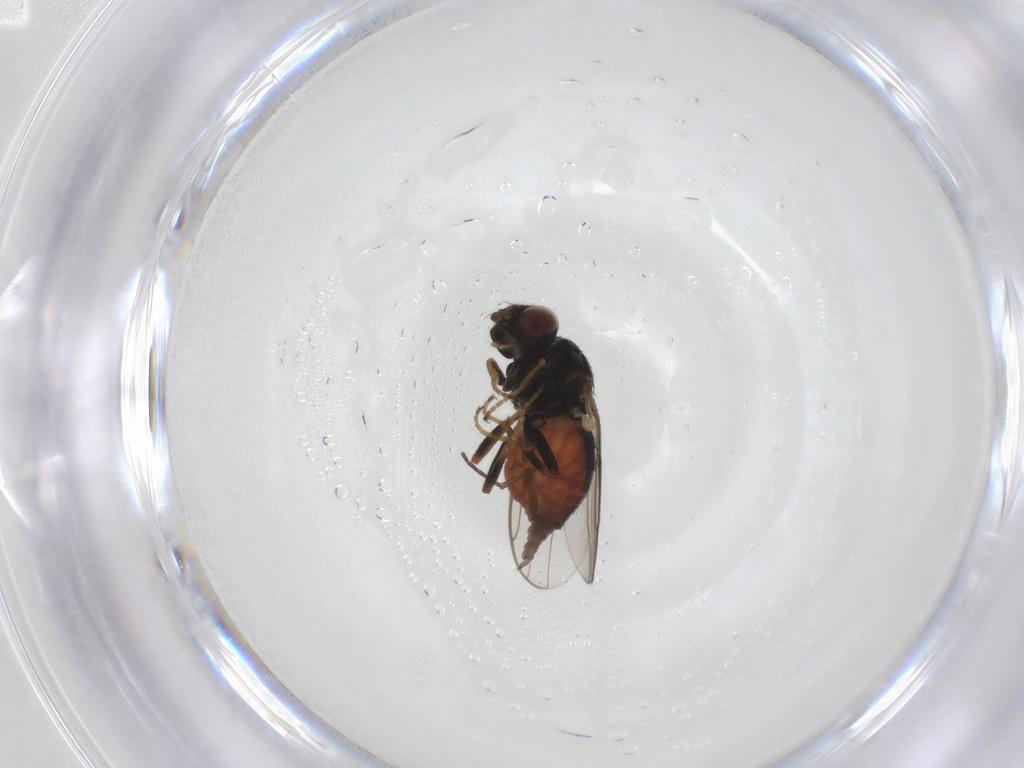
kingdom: Animalia
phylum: Arthropoda
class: Insecta
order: Diptera
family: Chloropidae
